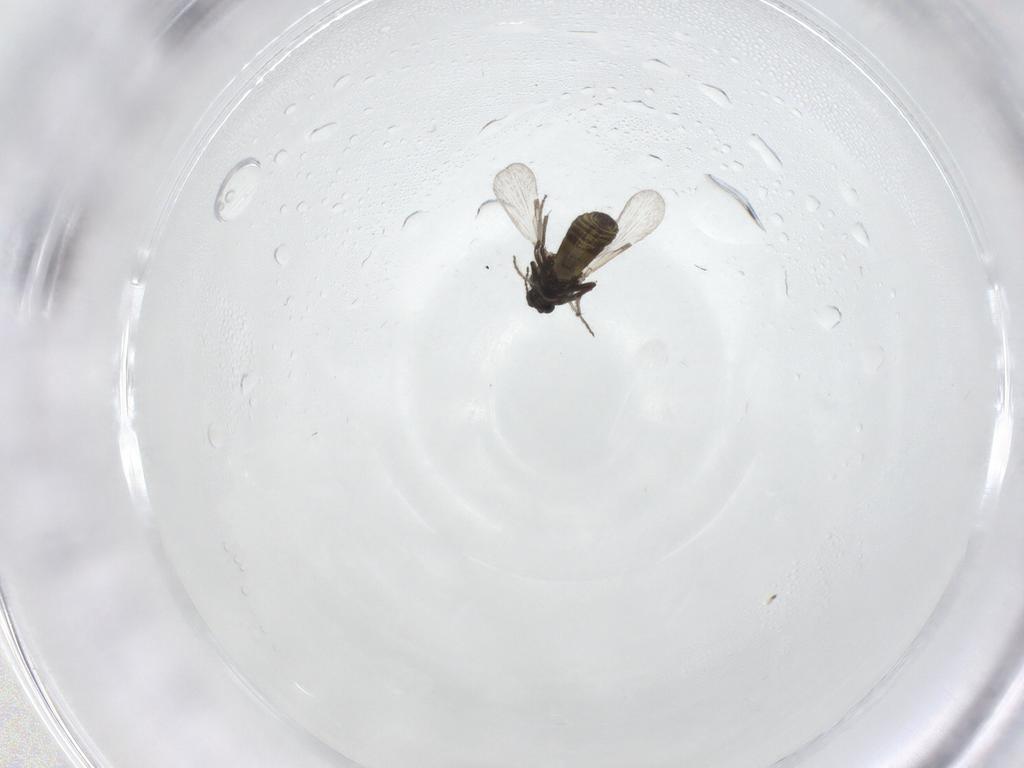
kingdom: Animalia
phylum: Arthropoda
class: Insecta
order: Diptera
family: Ceratopogonidae
